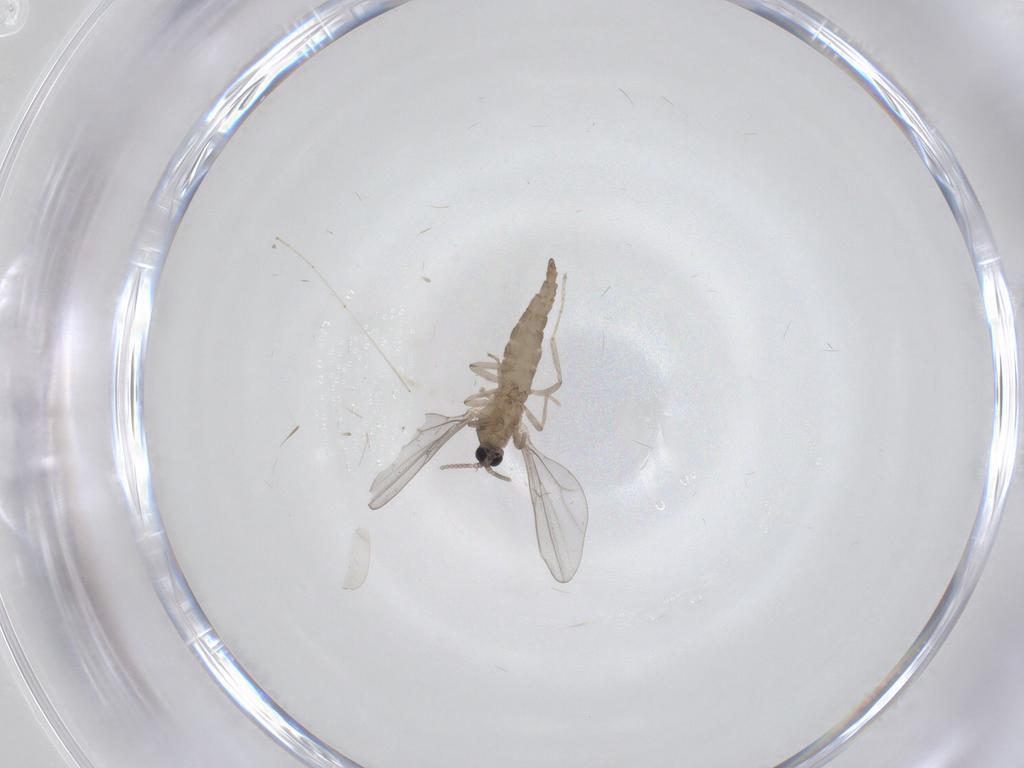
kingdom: Animalia
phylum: Arthropoda
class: Insecta
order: Diptera
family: Cecidomyiidae
